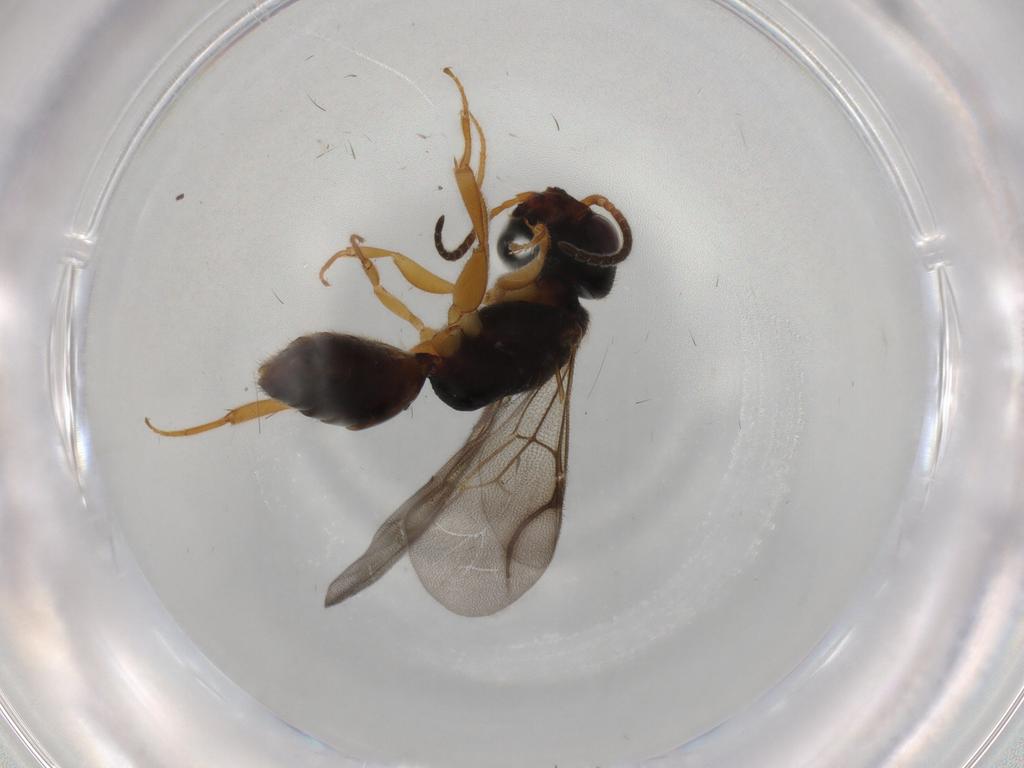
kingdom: Animalia
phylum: Arthropoda
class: Insecta
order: Hymenoptera
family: Bethylidae
